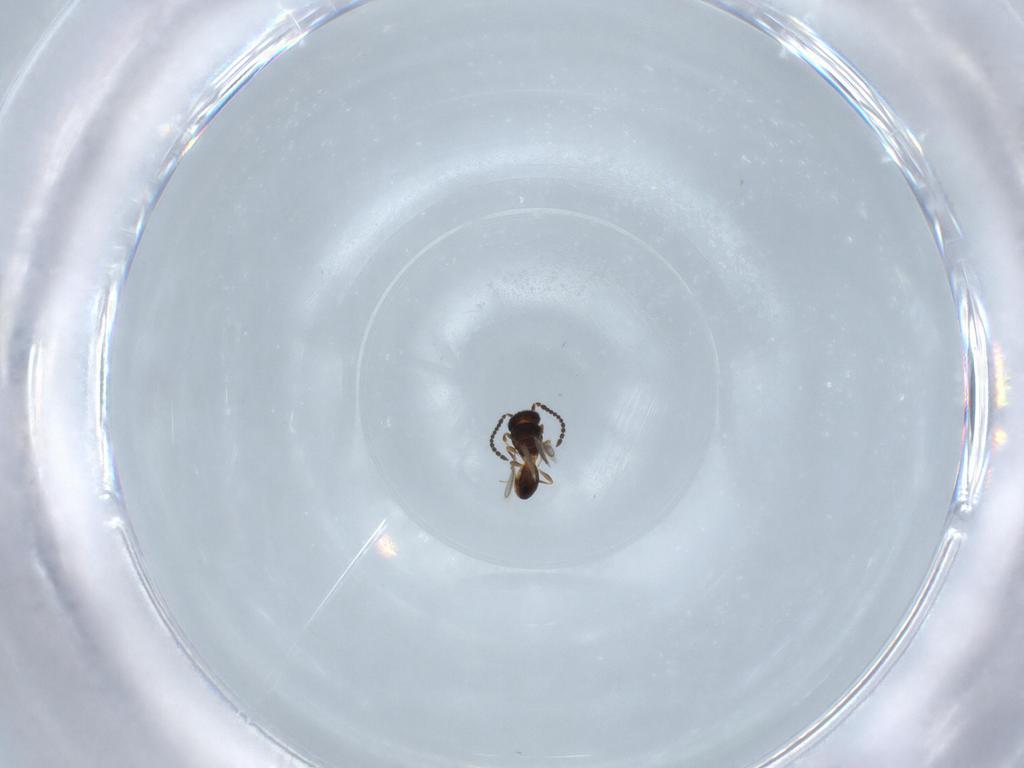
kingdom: Animalia
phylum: Arthropoda
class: Insecta
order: Hymenoptera
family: Scelionidae
